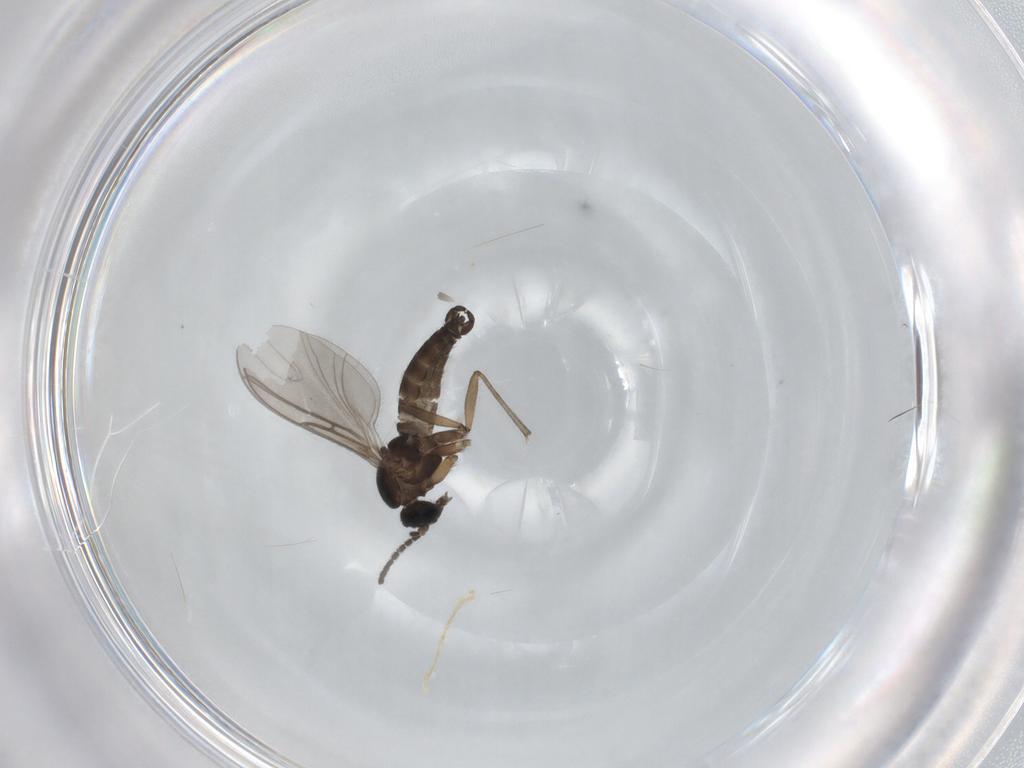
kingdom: Animalia
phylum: Arthropoda
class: Insecta
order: Diptera
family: Sciaridae
